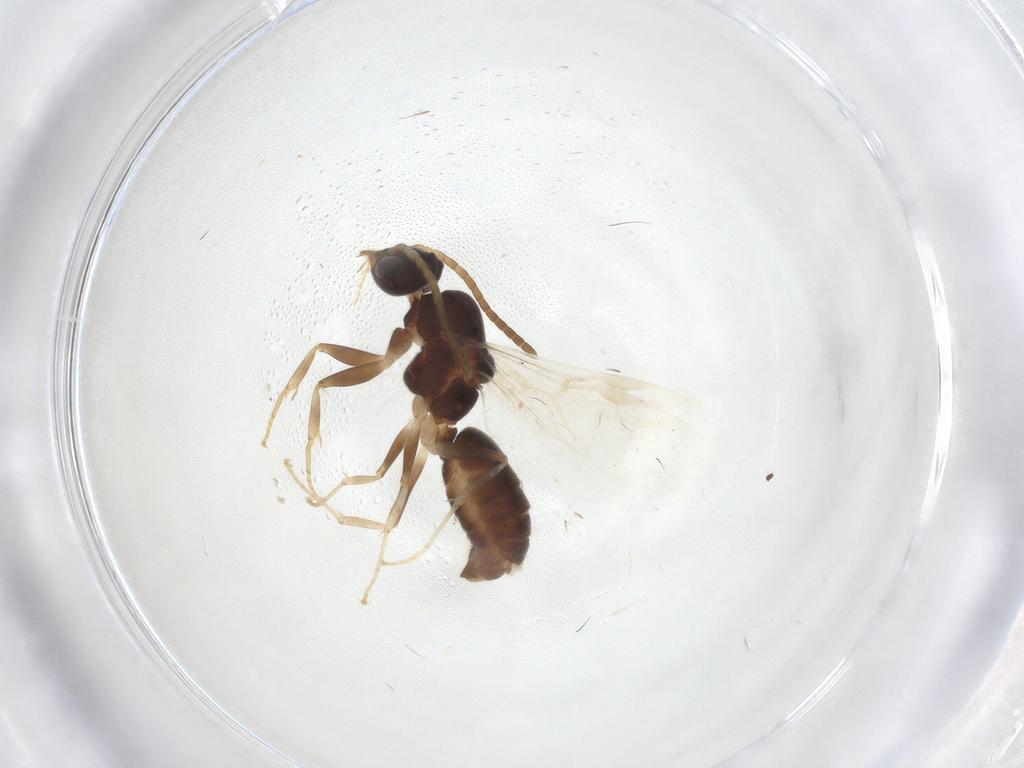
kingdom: Animalia
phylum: Arthropoda
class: Insecta
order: Hymenoptera
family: Formicidae
